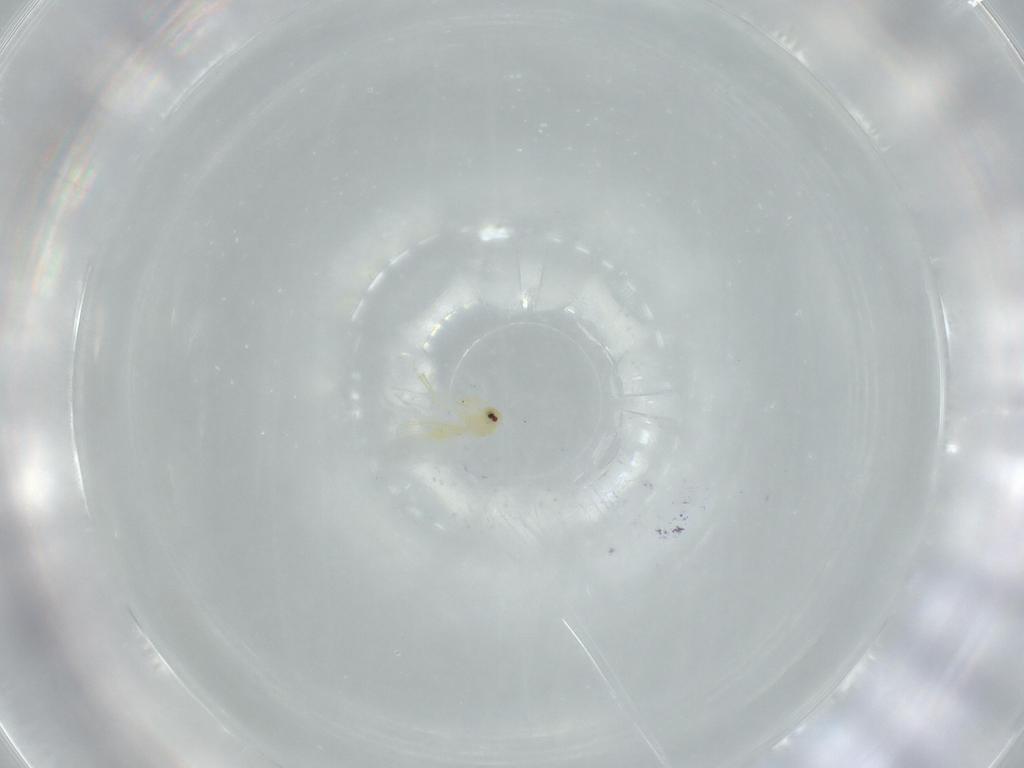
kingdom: Animalia
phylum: Arthropoda
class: Insecta
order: Hemiptera
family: Aleyrodidae
